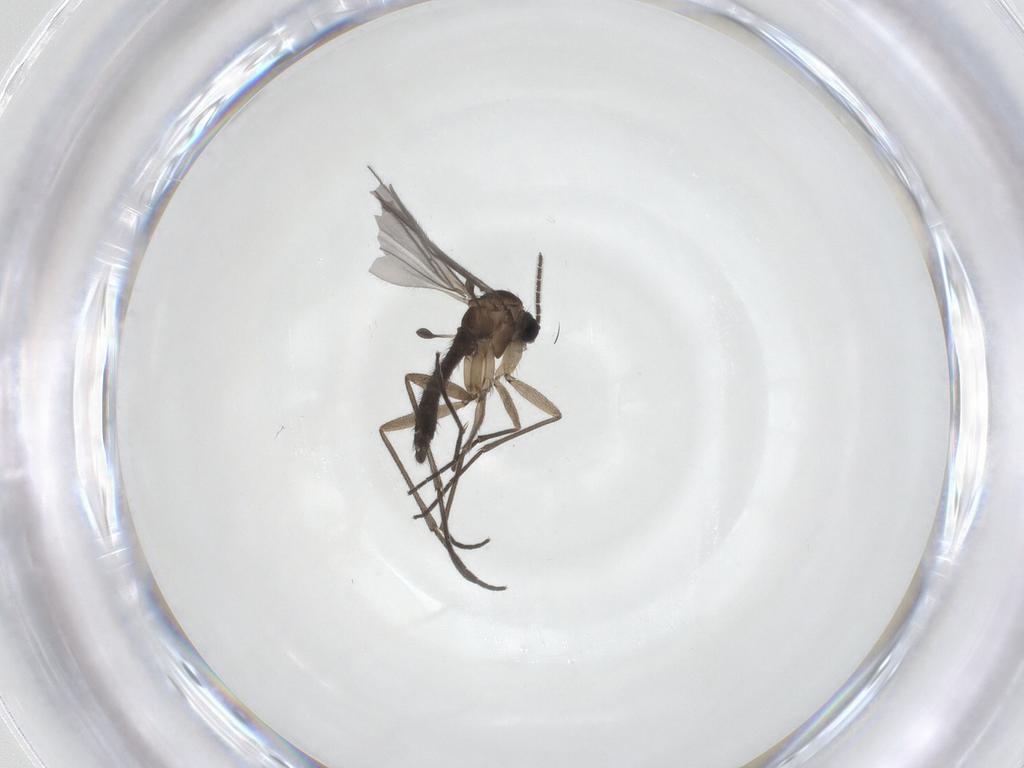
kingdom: Animalia
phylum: Arthropoda
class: Insecta
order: Diptera
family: Sciaridae
